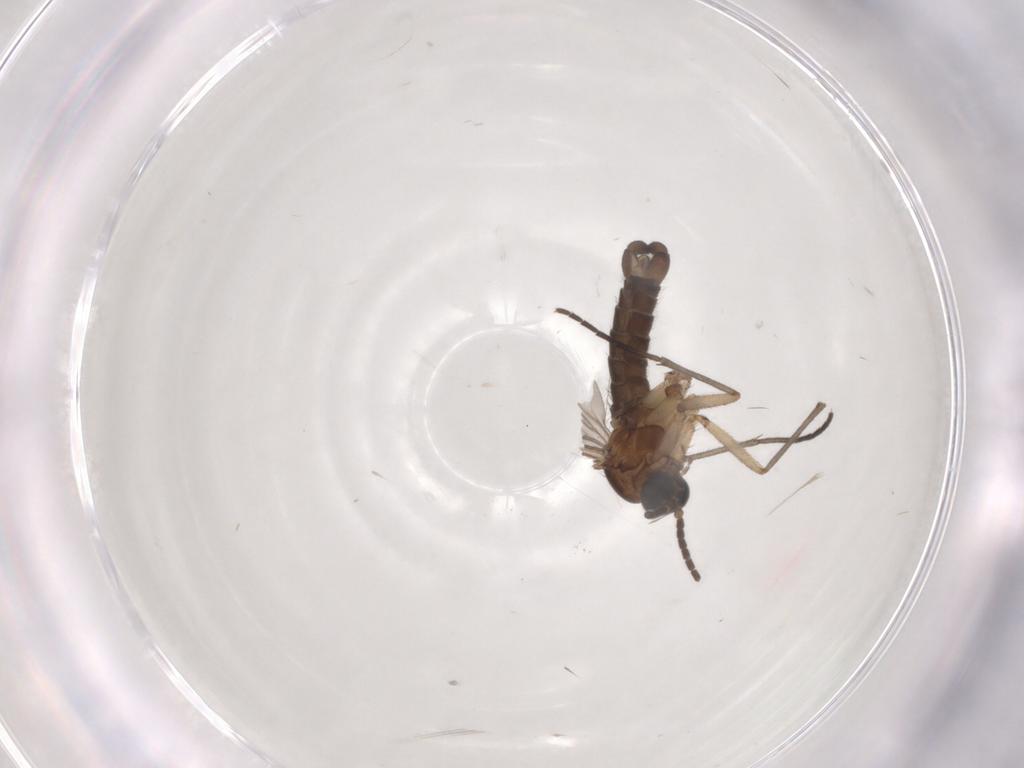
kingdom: Animalia
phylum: Arthropoda
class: Insecta
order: Diptera
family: Sciaridae
